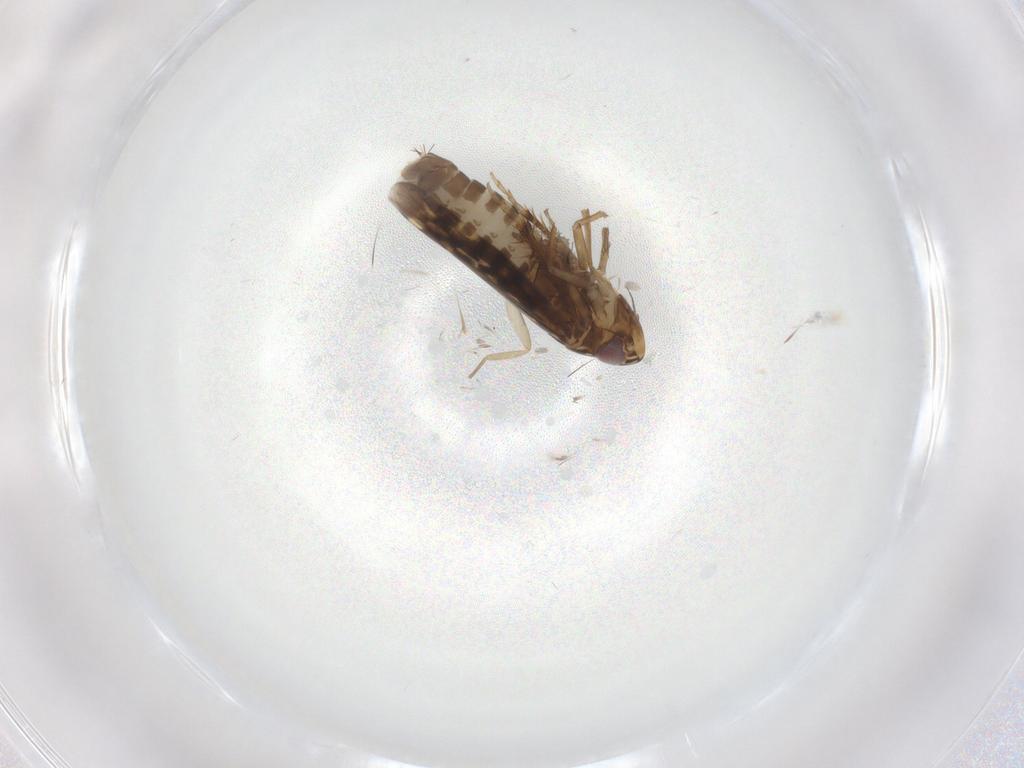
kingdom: Animalia
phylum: Arthropoda
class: Insecta
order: Hemiptera
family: Cicadellidae
